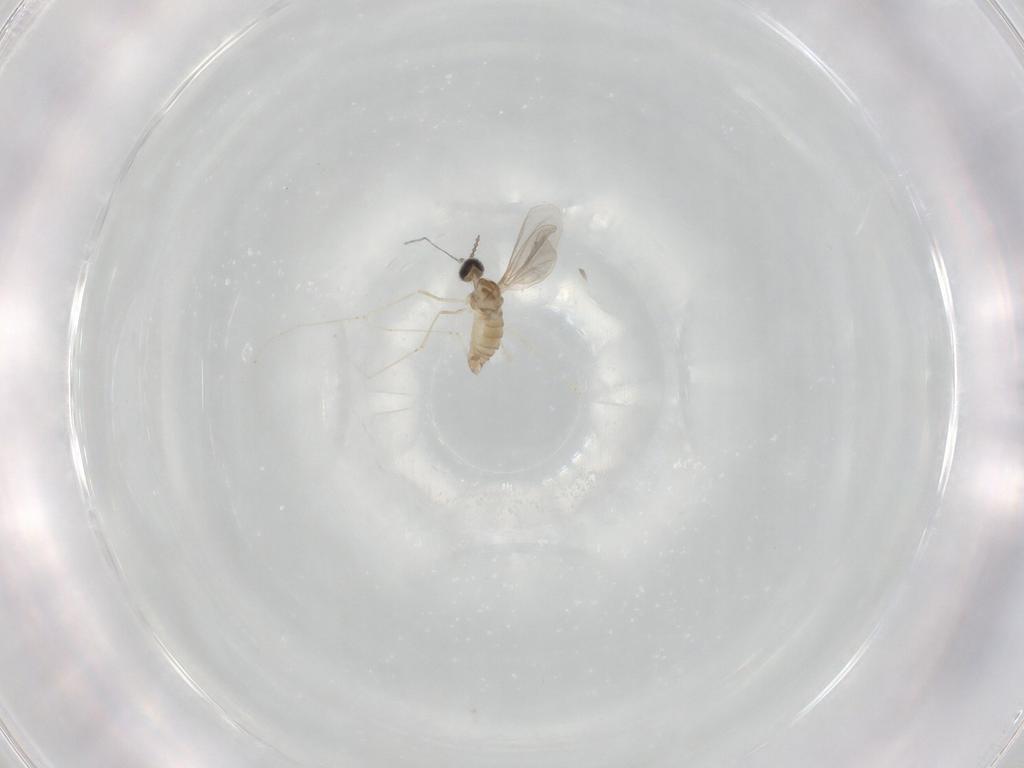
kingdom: Animalia
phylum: Arthropoda
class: Insecta
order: Diptera
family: Cecidomyiidae
